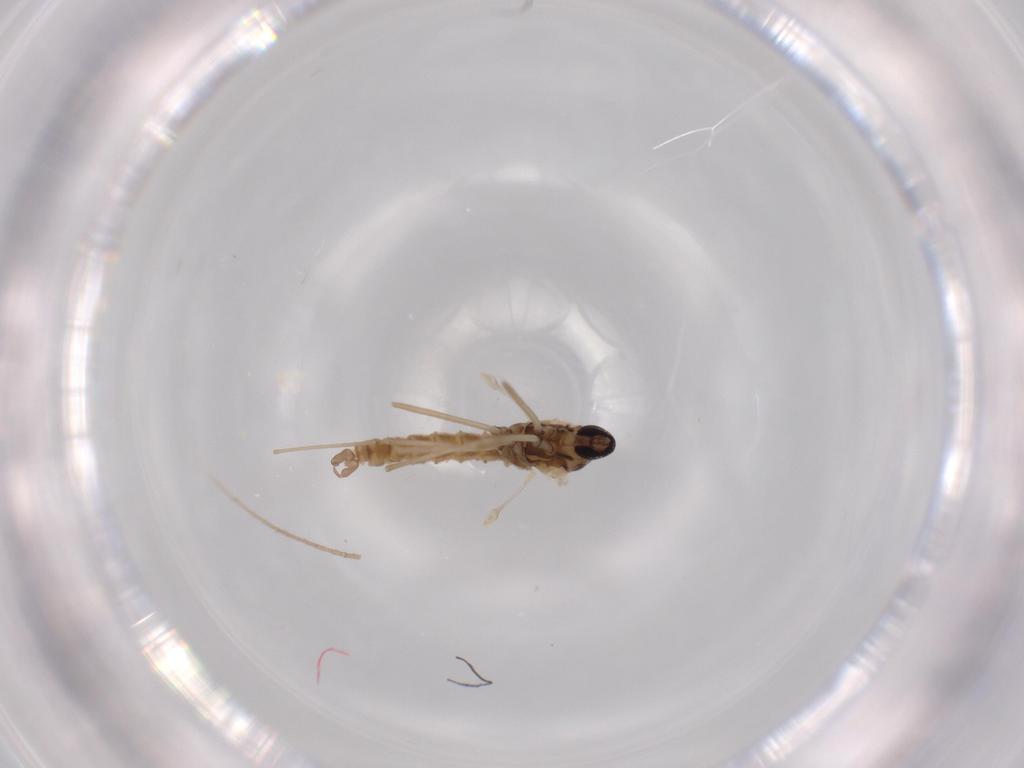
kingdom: Animalia
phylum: Arthropoda
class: Insecta
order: Diptera
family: Cecidomyiidae
